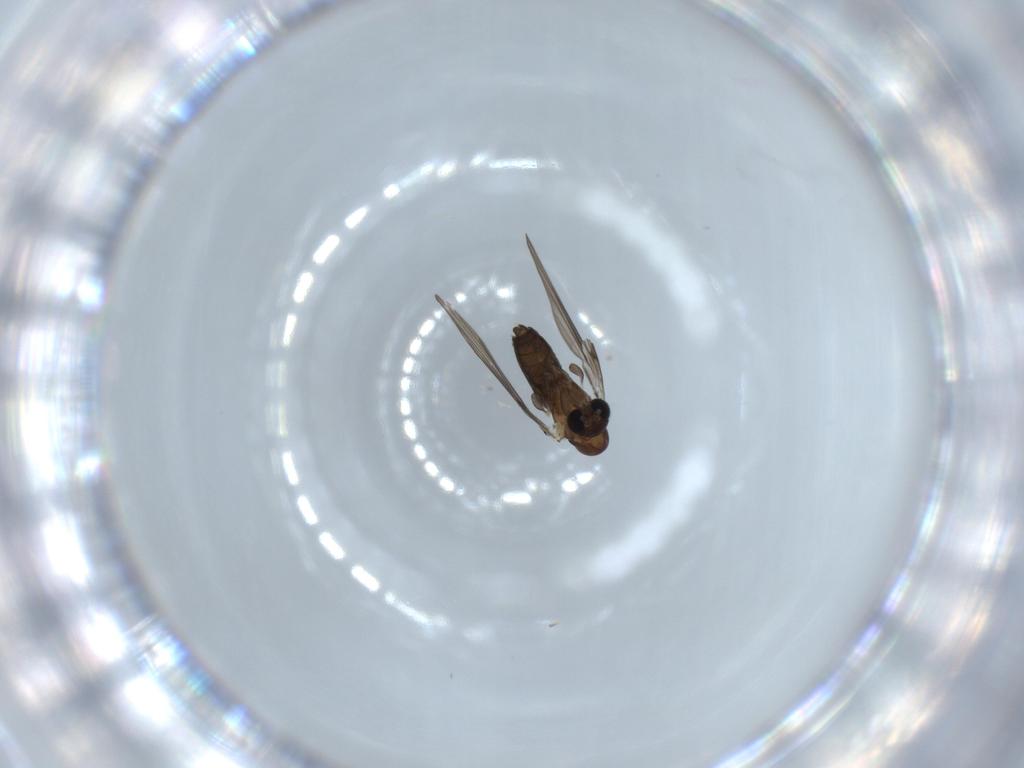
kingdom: Animalia
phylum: Arthropoda
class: Insecta
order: Diptera
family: Psychodidae
